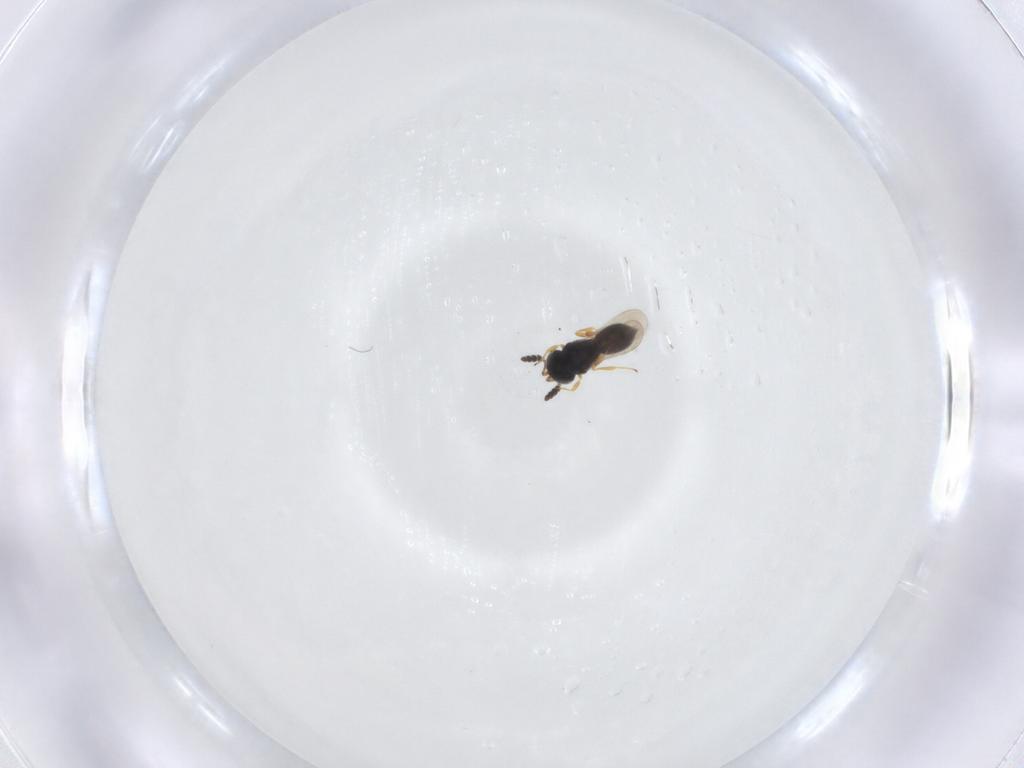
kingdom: Animalia
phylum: Arthropoda
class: Insecta
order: Hymenoptera
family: Scelionidae
